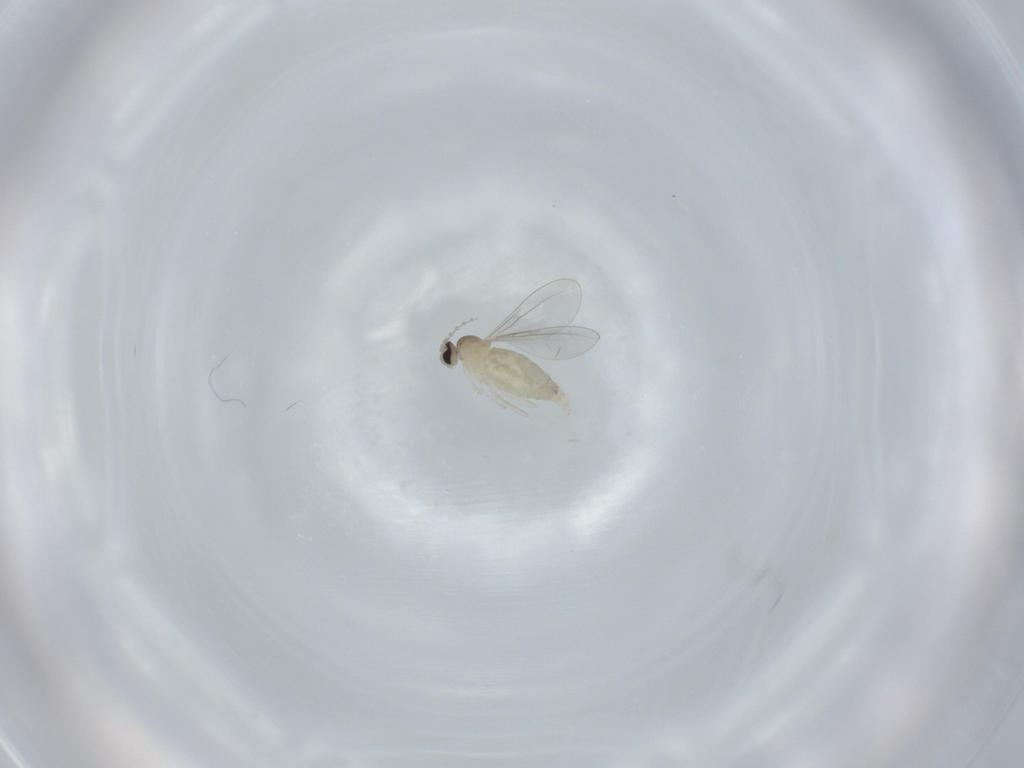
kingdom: Animalia
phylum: Arthropoda
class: Insecta
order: Diptera
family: Cecidomyiidae
